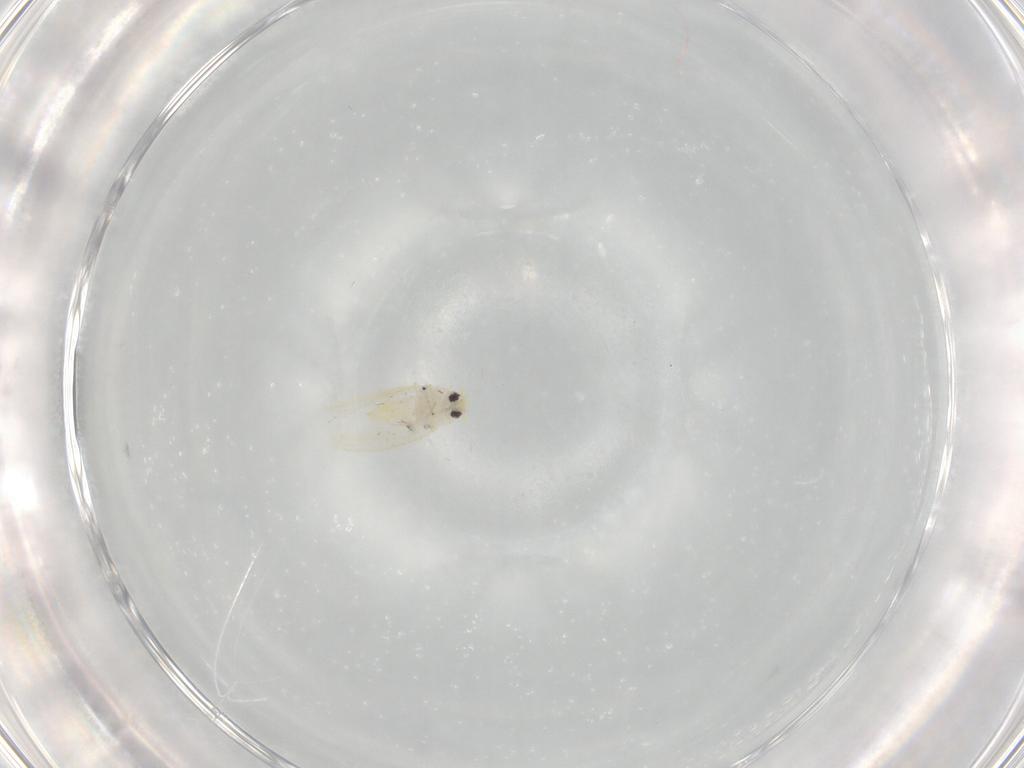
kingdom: Animalia
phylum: Arthropoda
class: Insecta
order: Hemiptera
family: Aleyrodidae
